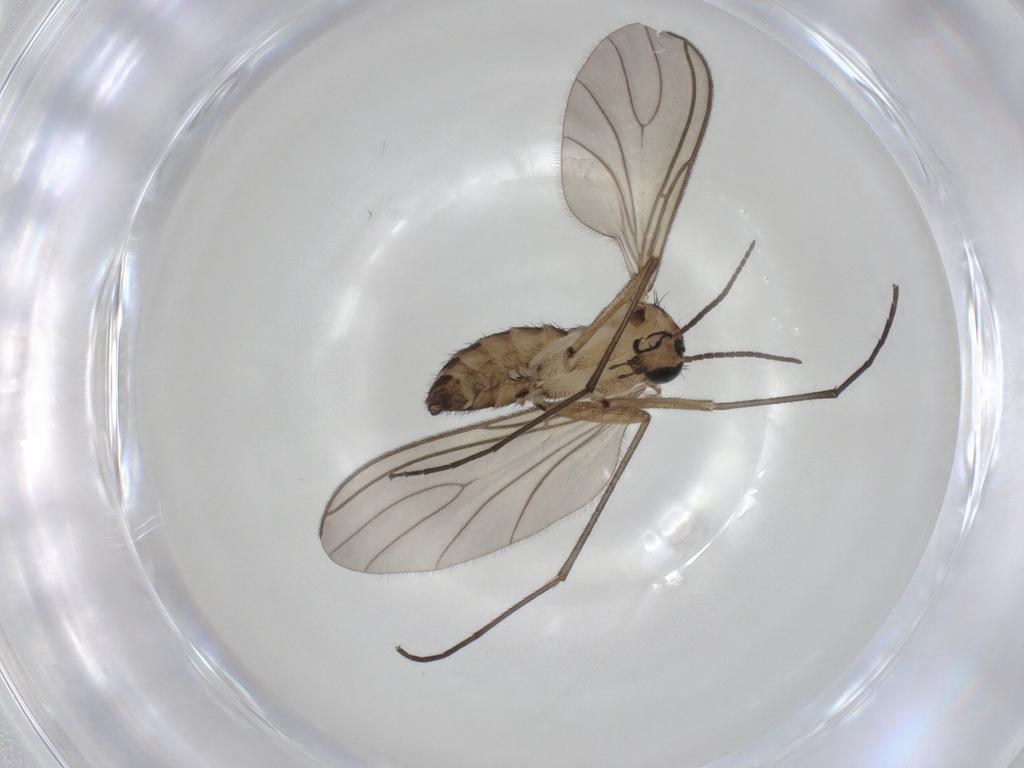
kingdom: Animalia
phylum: Arthropoda
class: Insecta
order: Diptera
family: Sciaridae
